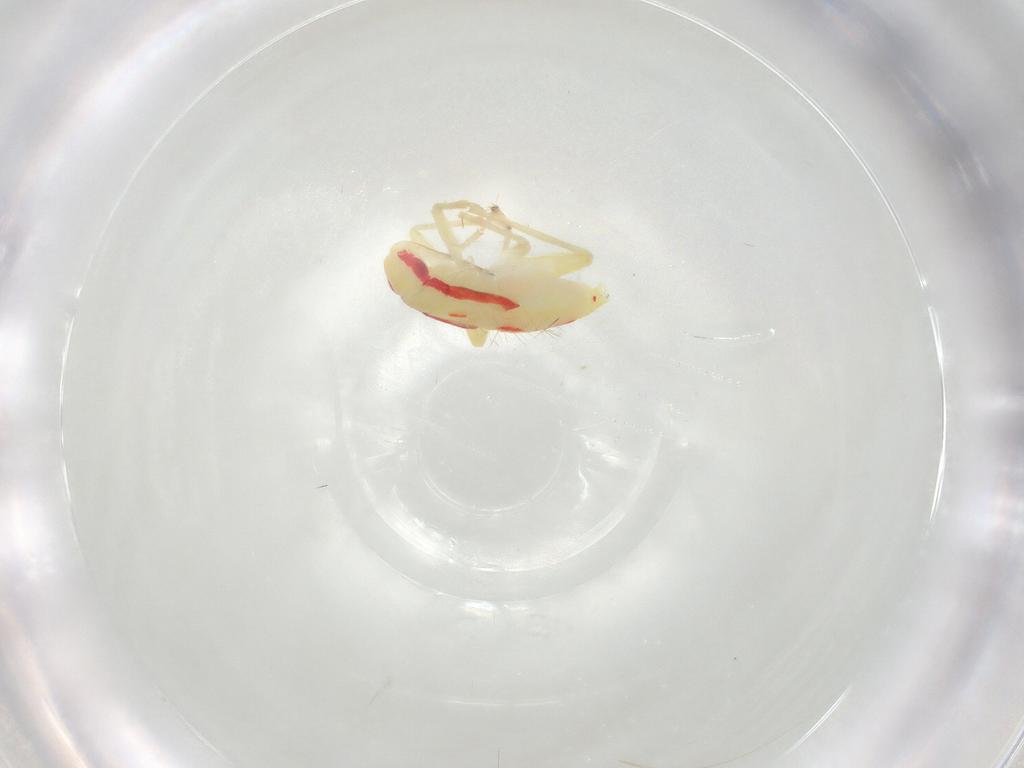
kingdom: Animalia
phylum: Arthropoda
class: Insecta
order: Hemiptera
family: Miridae
